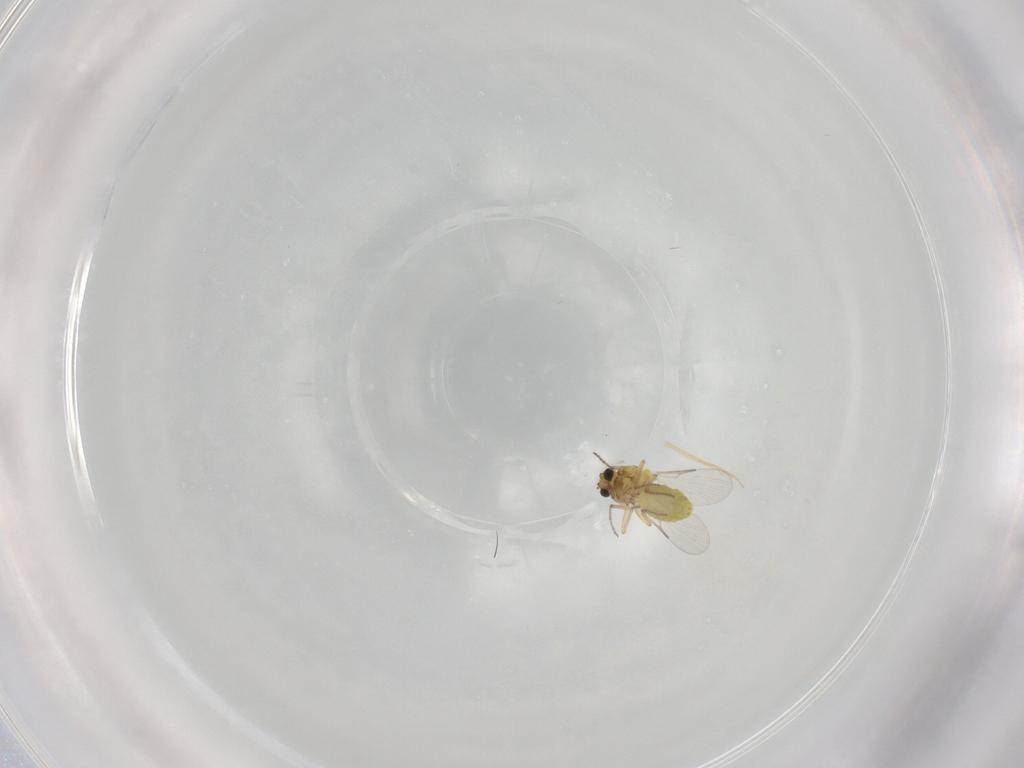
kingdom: Animalia
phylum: Arthropoda
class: Insecta
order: Diptera
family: Ceratopogonidae
